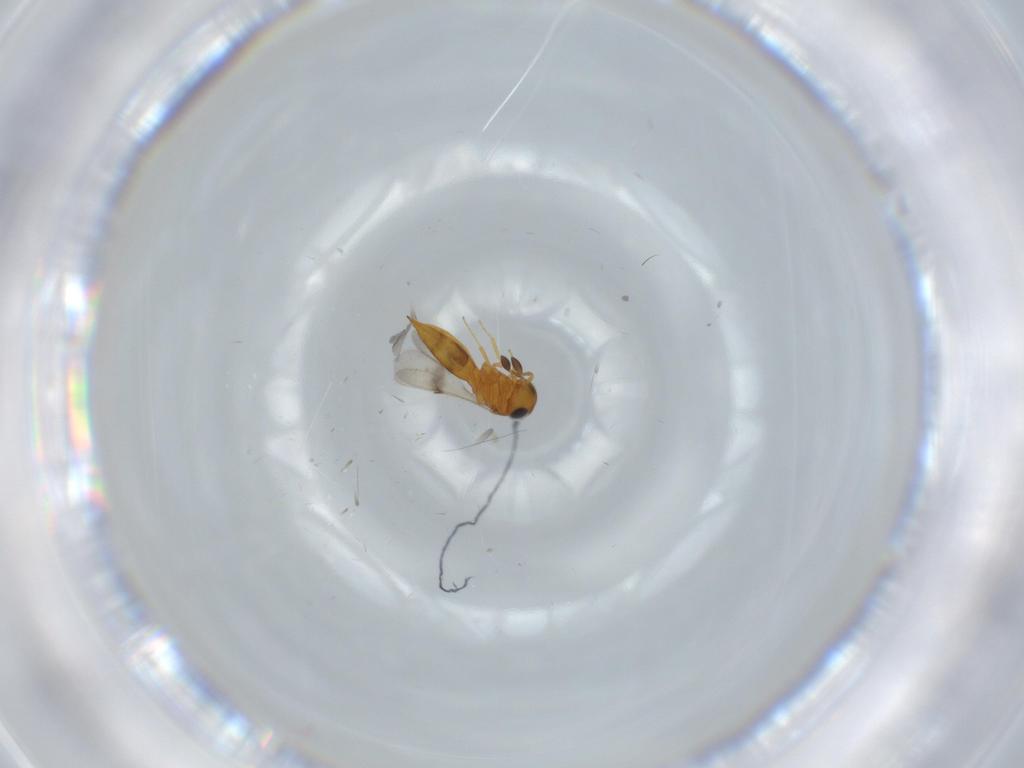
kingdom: Animalia
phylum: Arthropoda
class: Insecta
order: Hymenoptera
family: Scelionidae
